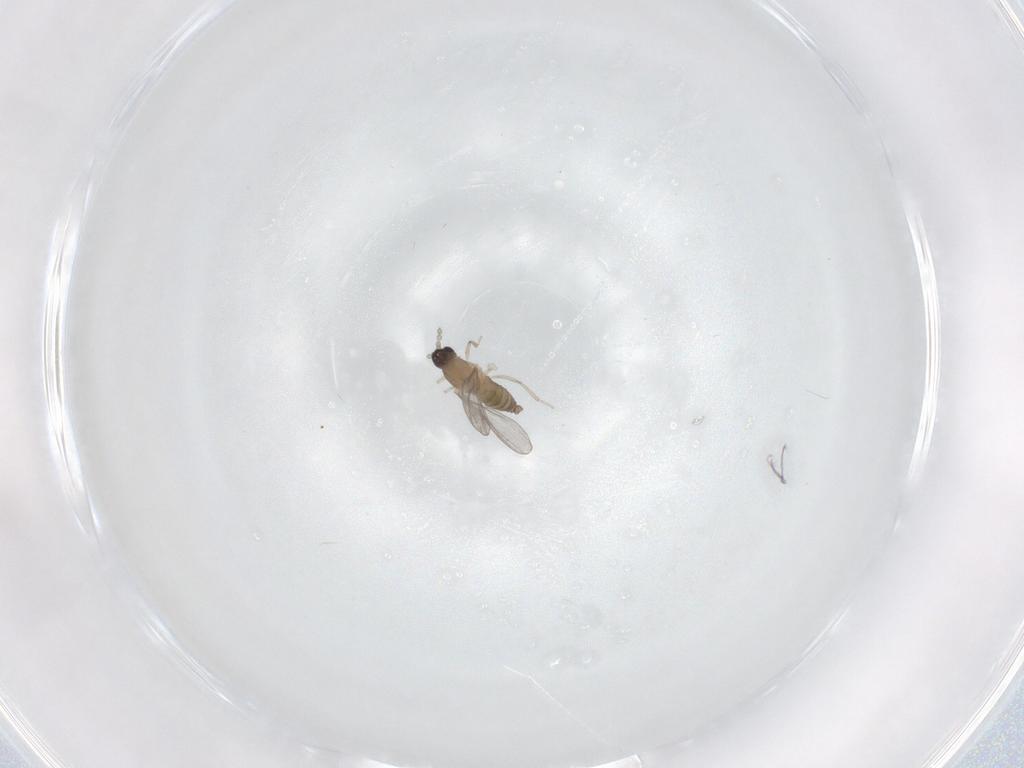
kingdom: Animalia
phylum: Arthropoda
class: Insecta
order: Diptera
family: Cecidomyiidae
